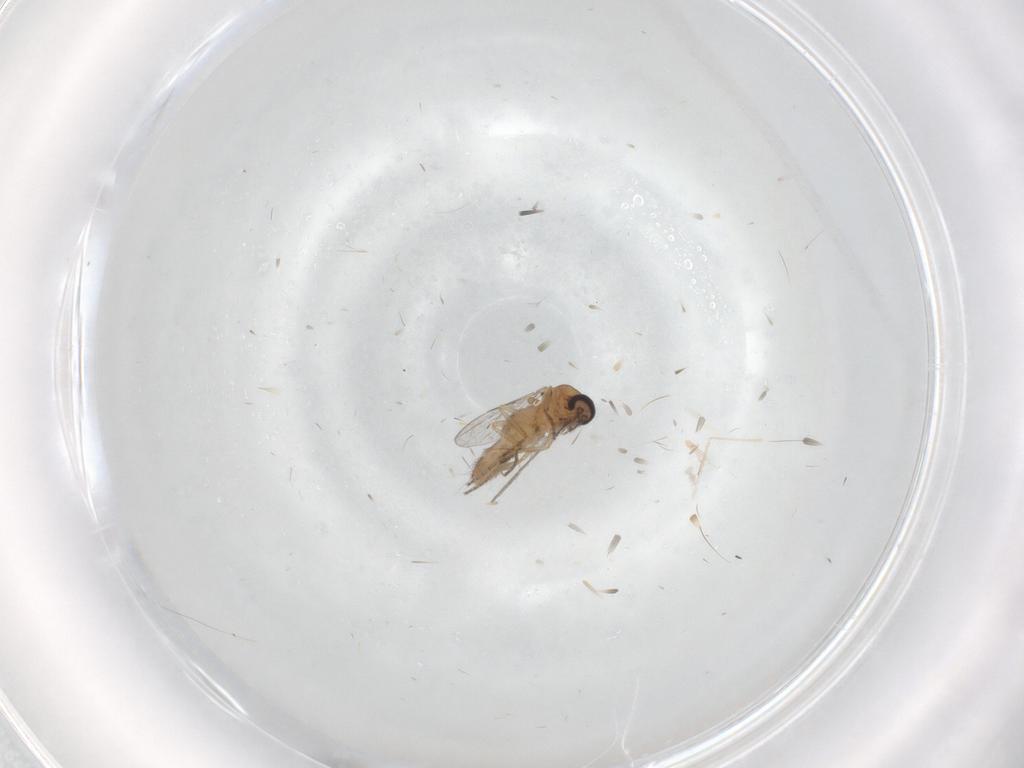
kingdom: Animalia
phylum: Arthropoda
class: Insecta
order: Diptera
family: Ceratopogonidae
